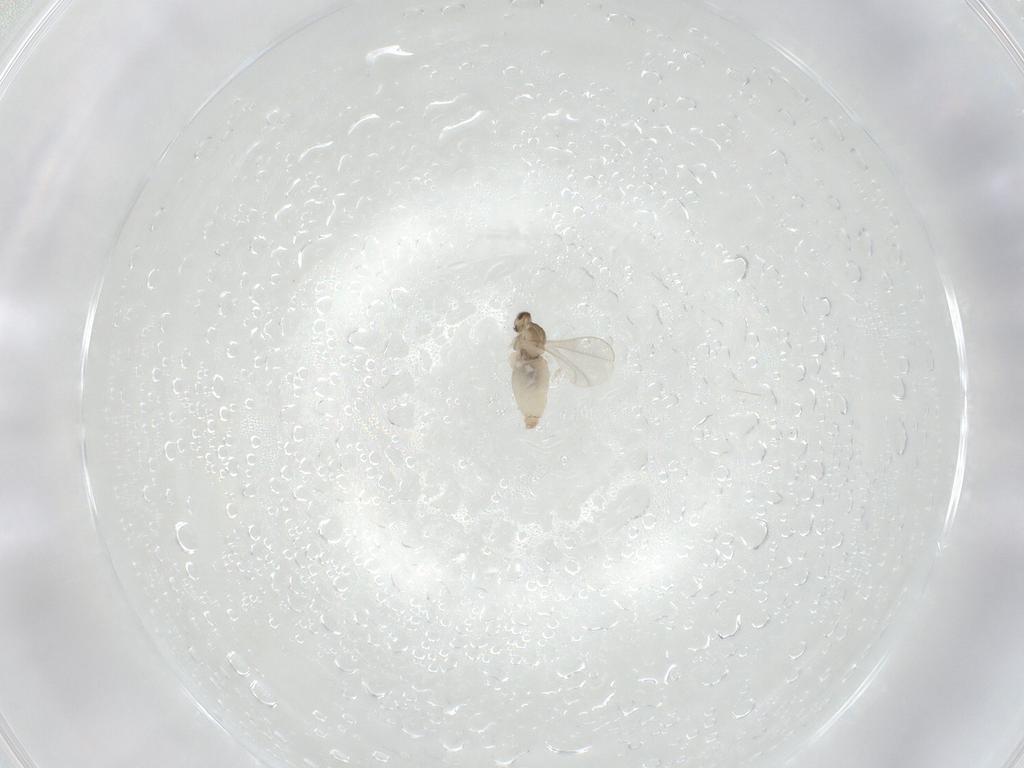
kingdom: Animalia
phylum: Arthropoda
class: Insecta
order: Diptera
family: Cecidomyiidae
